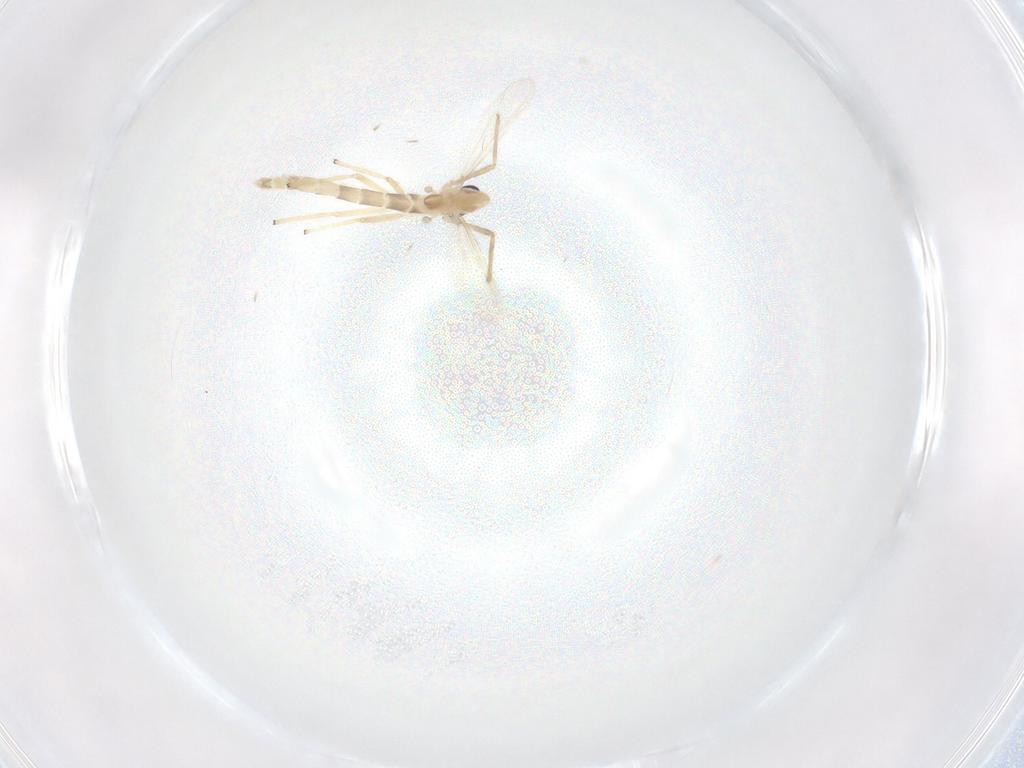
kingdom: Animalia
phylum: Arthropoda
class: Insecta
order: Diptera
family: Chironomidae
